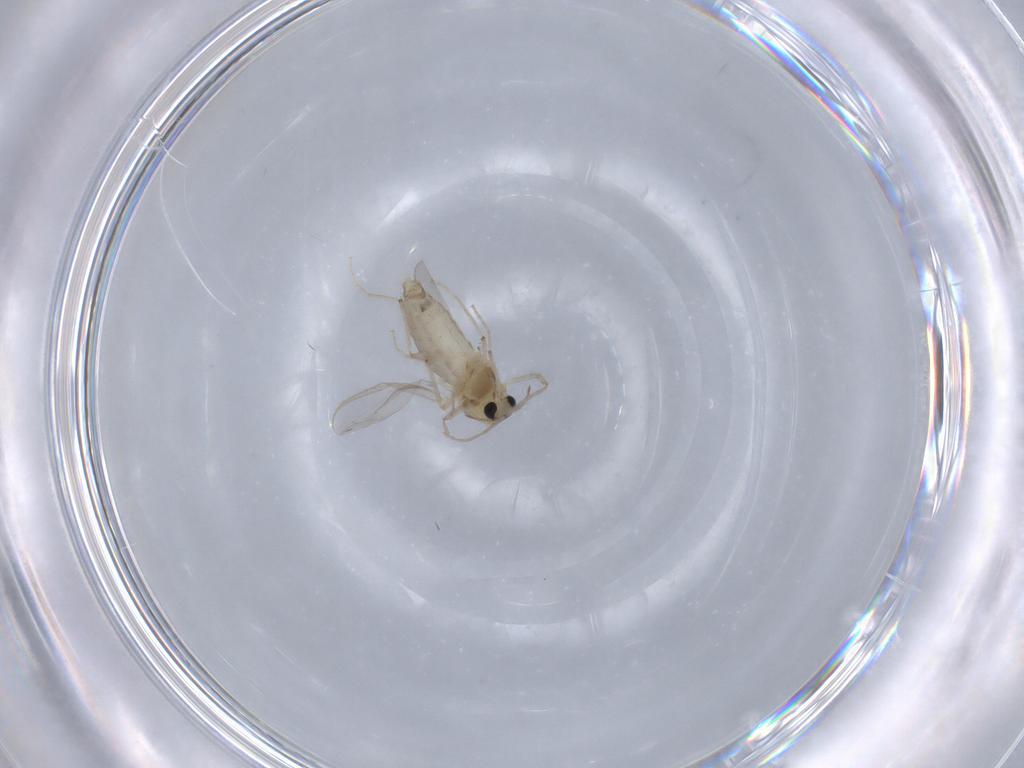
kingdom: Animalia
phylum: Arthropoda
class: Insecta
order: Diptera
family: Chironomidae
